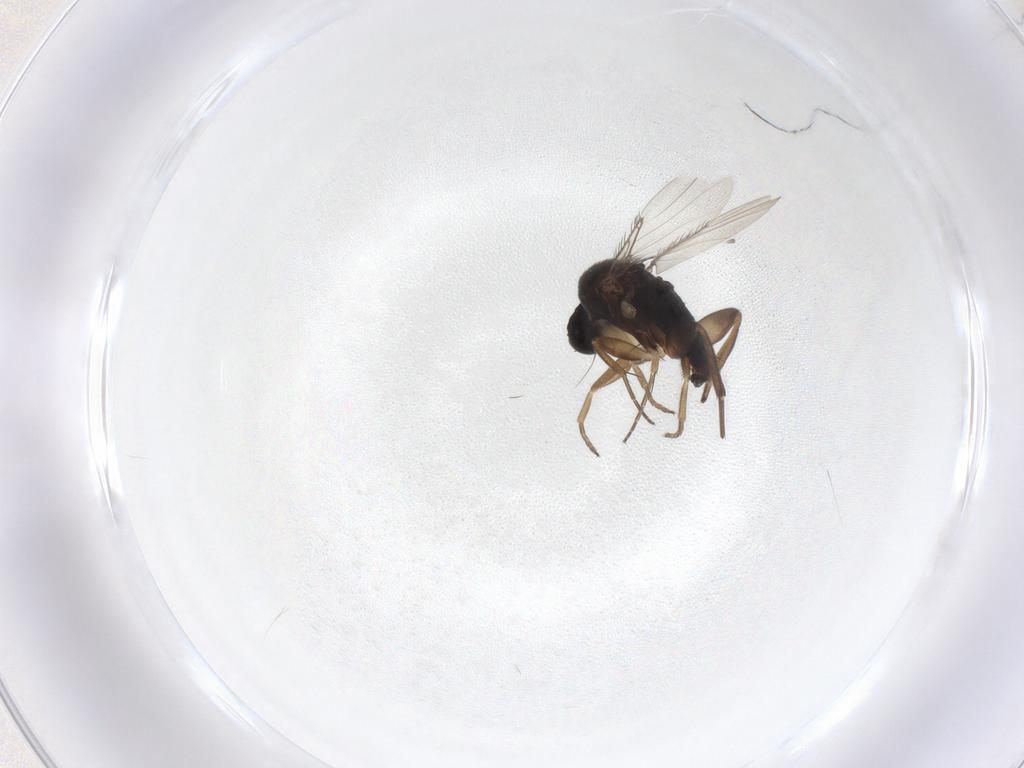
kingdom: Animalia
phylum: Arthropoda
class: Insecta
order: Diptera
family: Phoridae
